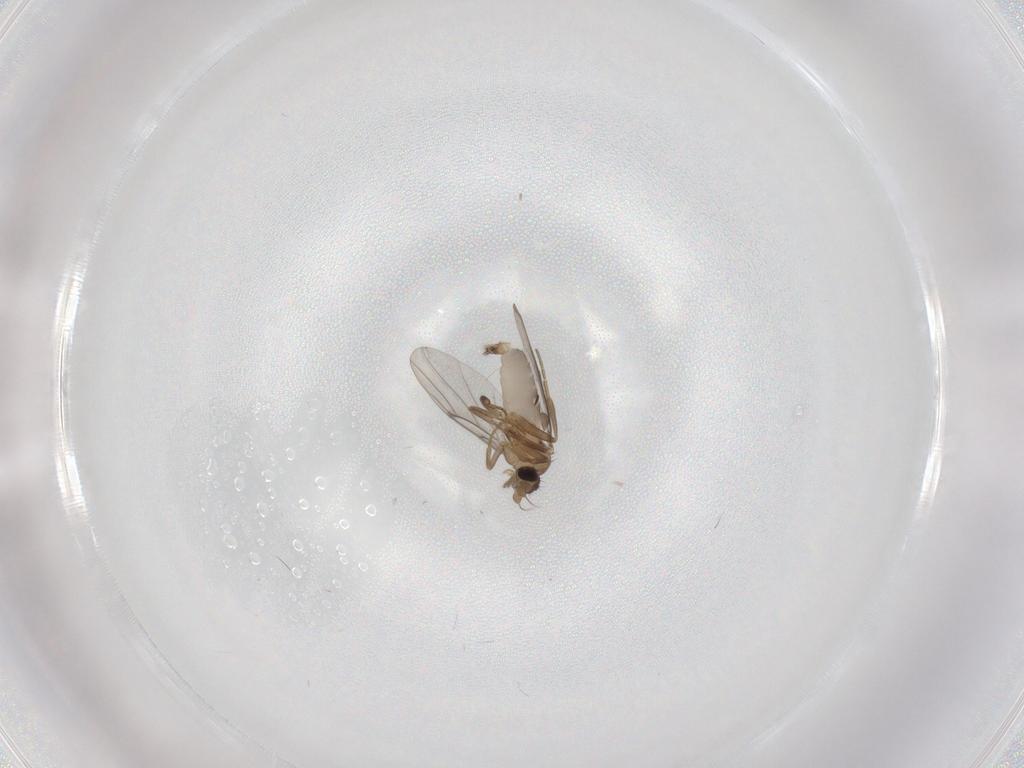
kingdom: Animalia
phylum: Arthropoda
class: Insecta
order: Diptera
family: Cecidomyiidae
